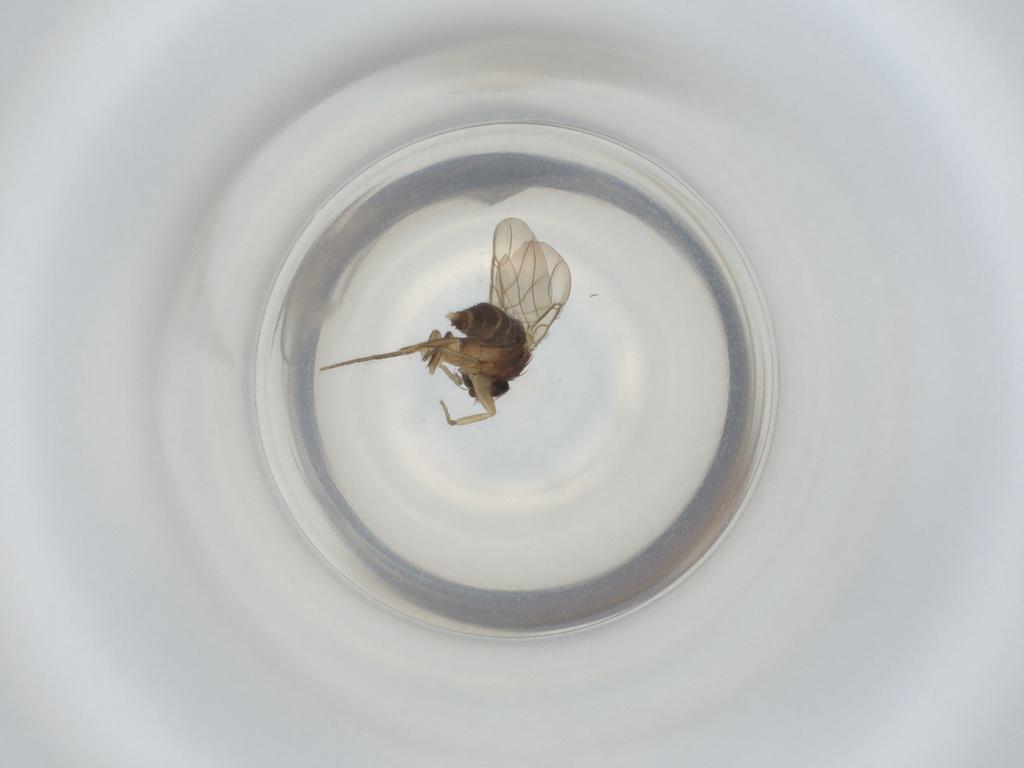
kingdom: Animalia
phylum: Arthropoda
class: Insecta
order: Diptera
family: Phoridae
